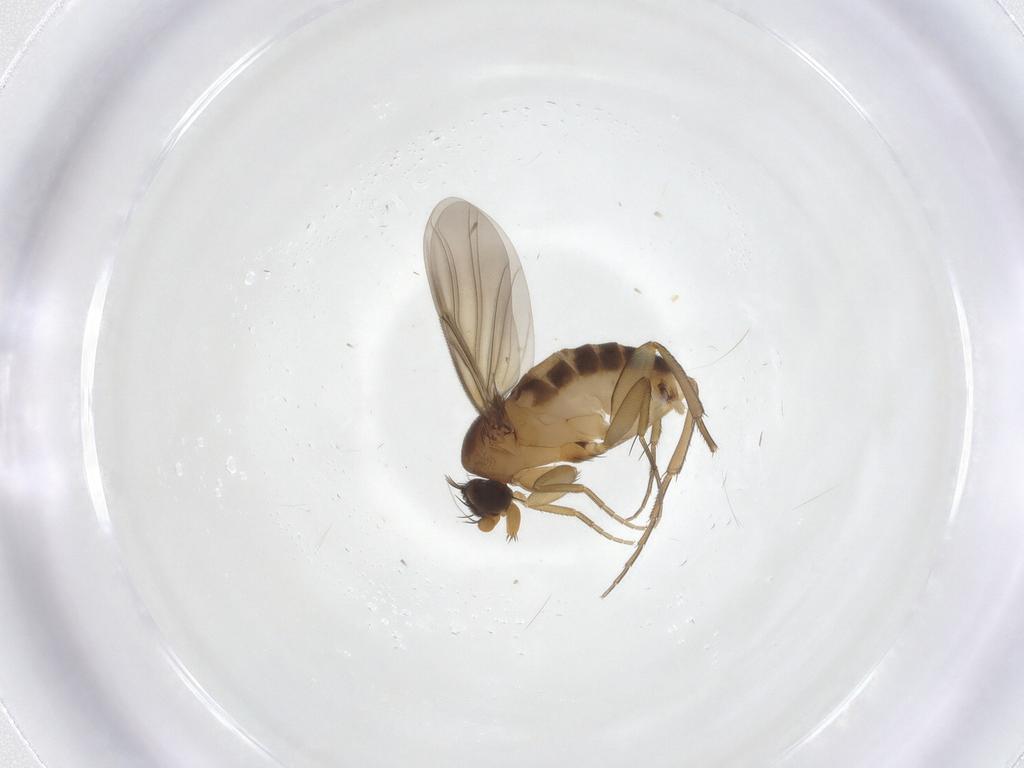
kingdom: Animalia
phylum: Arthropoda
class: Insecta
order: Diptera
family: Phoridae
